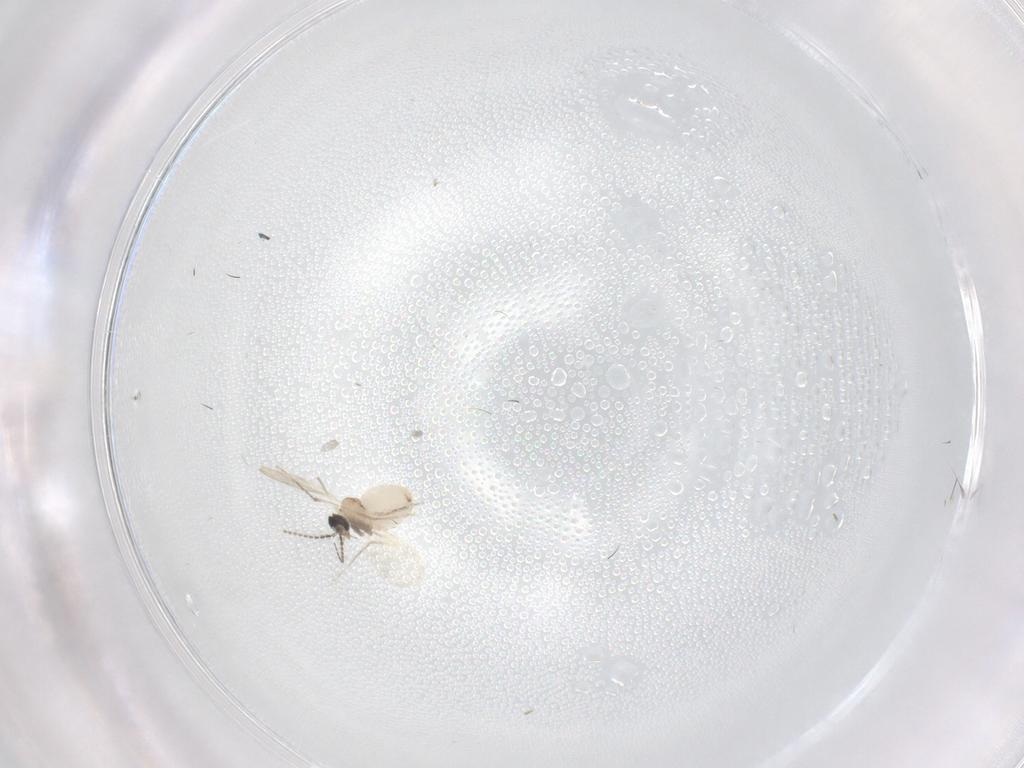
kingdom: Animalia
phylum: Arthropoda
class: Insecta
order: Diptera
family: Cecidomyiidae
